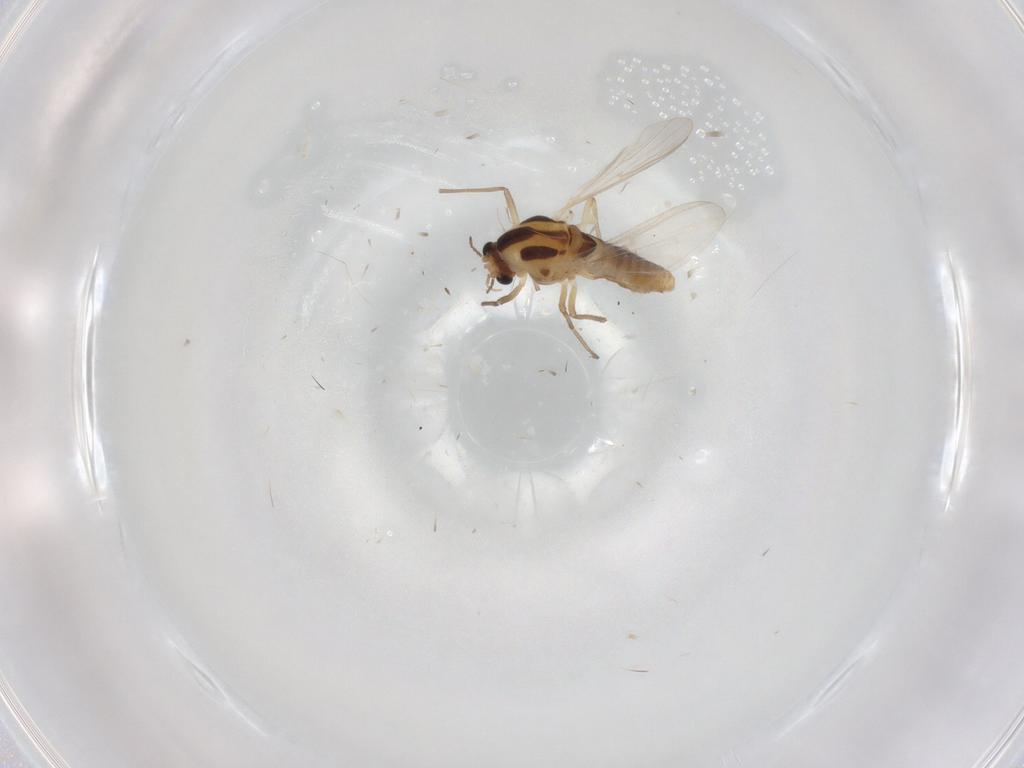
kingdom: Animalia
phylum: Arthropoda
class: Insecta
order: Diptera
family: Chironomidae
